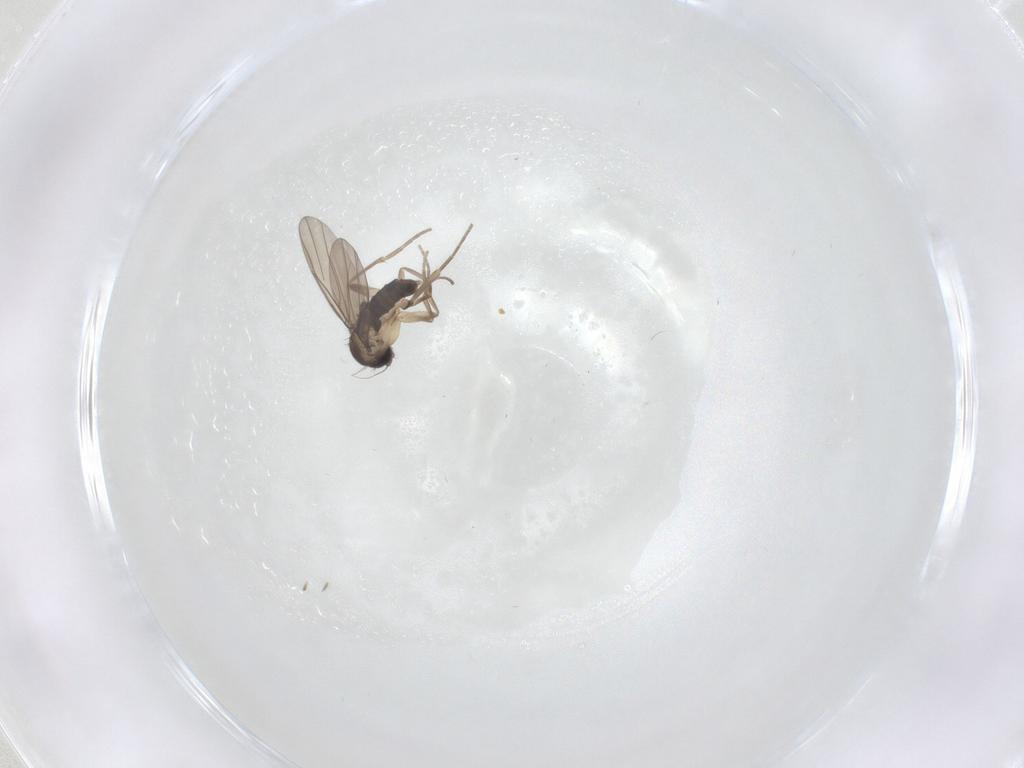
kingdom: Animalia
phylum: Arthropoda
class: Insecta
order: Diptera
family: Phoridae
